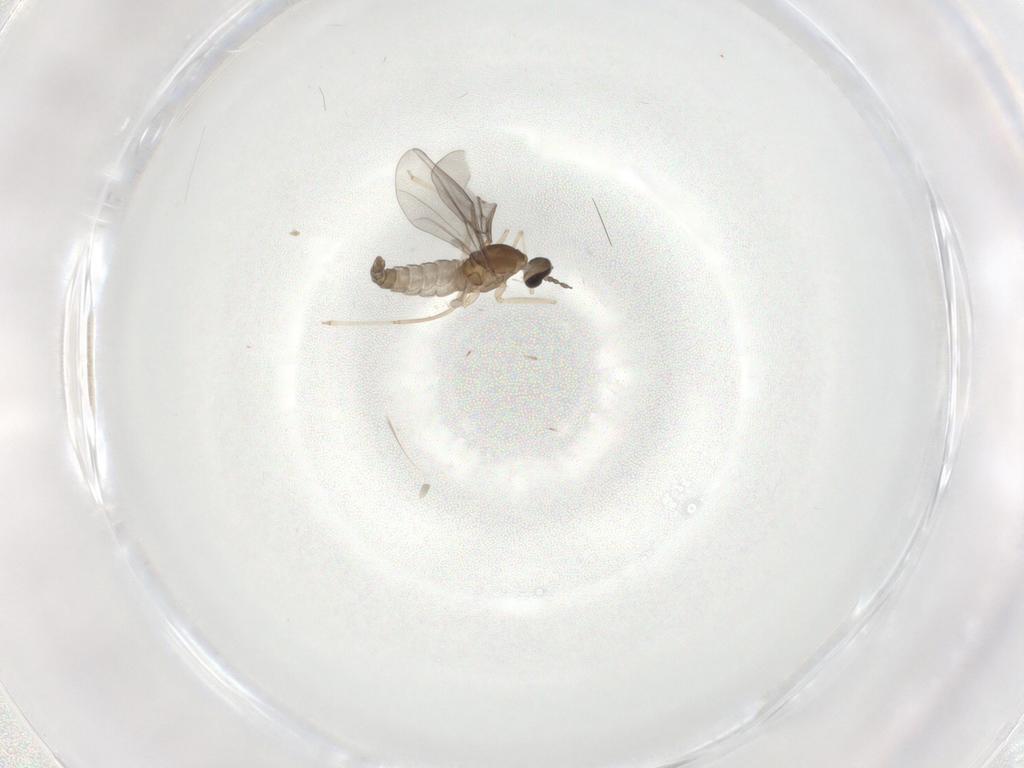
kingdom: Animalia
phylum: Arthropoda
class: Insecta
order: Diptera
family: Cecidomyiidae
